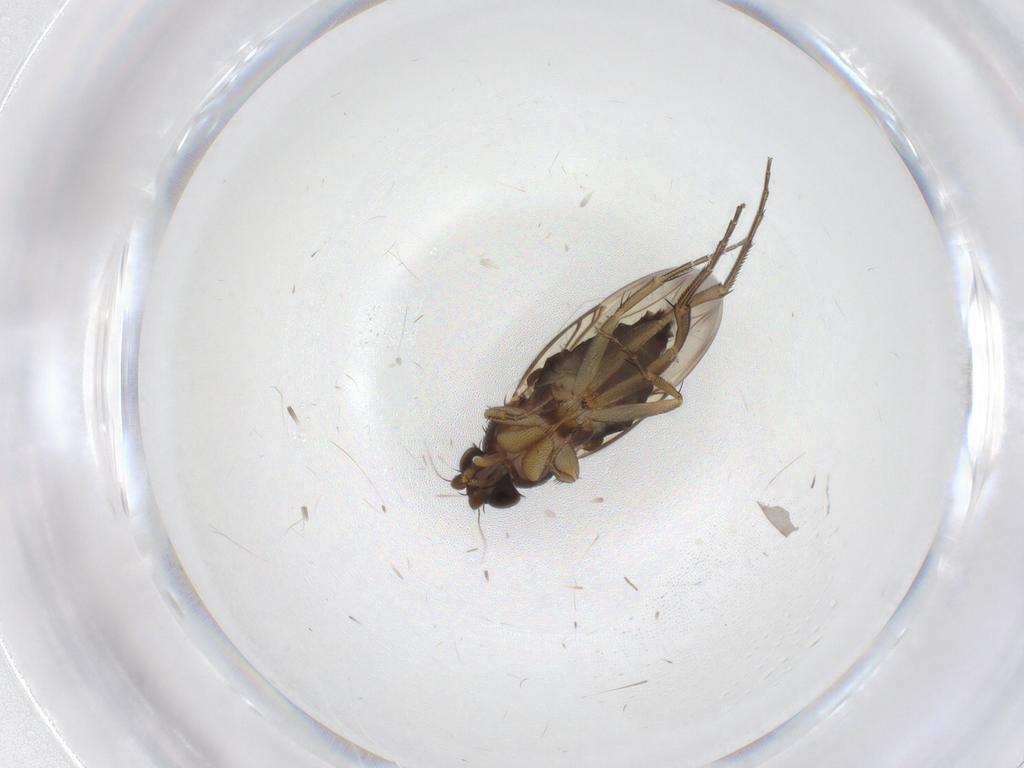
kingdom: Animalia
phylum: Arthropoda
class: Insecta
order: Diptera
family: Phoridae
